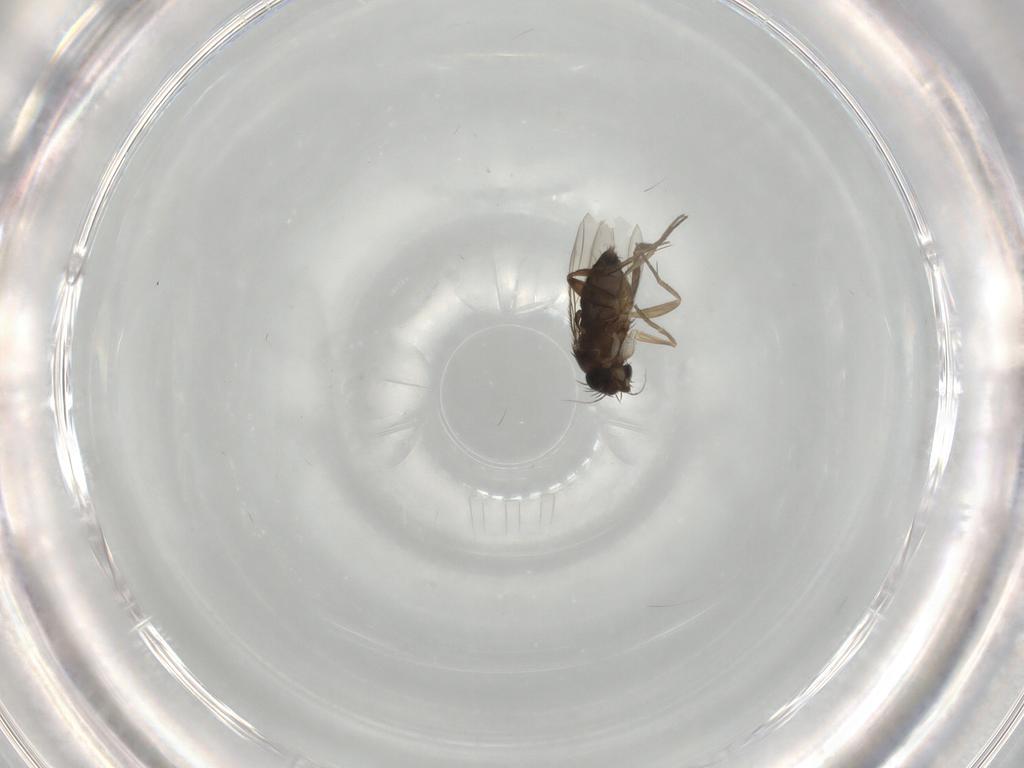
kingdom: Animalia
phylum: Arthropoda
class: Insecta
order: Diptera
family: Phoridae
